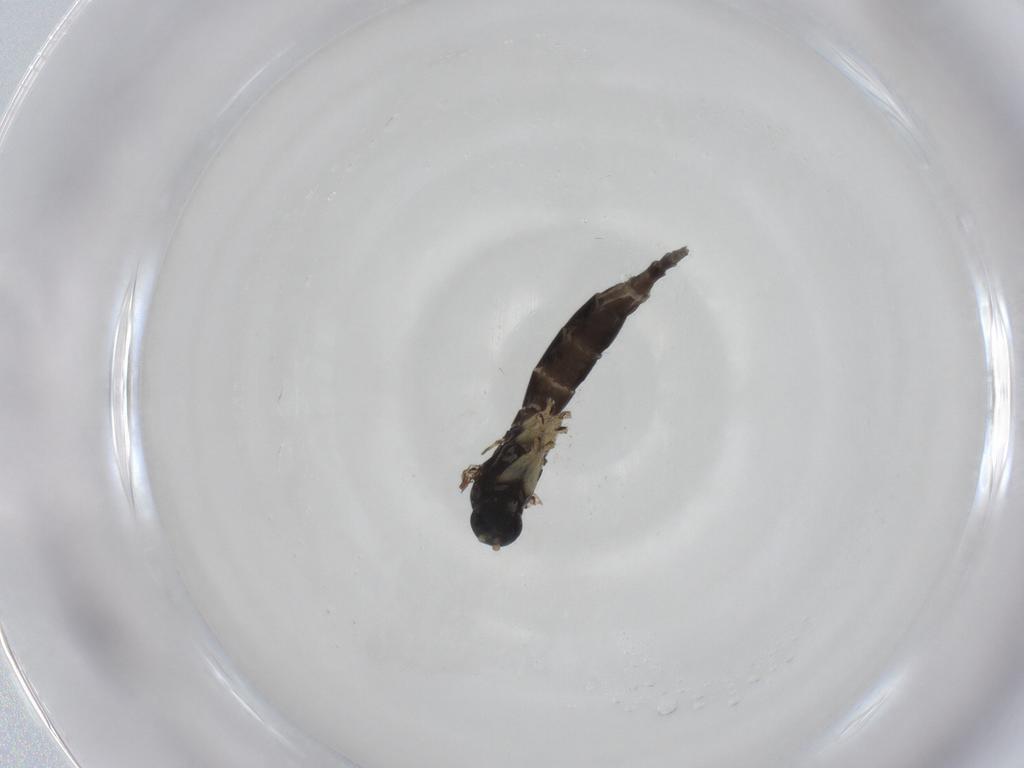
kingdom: Animalia
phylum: Arthropoda
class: Insecta
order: Diptera
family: Sciaridae
